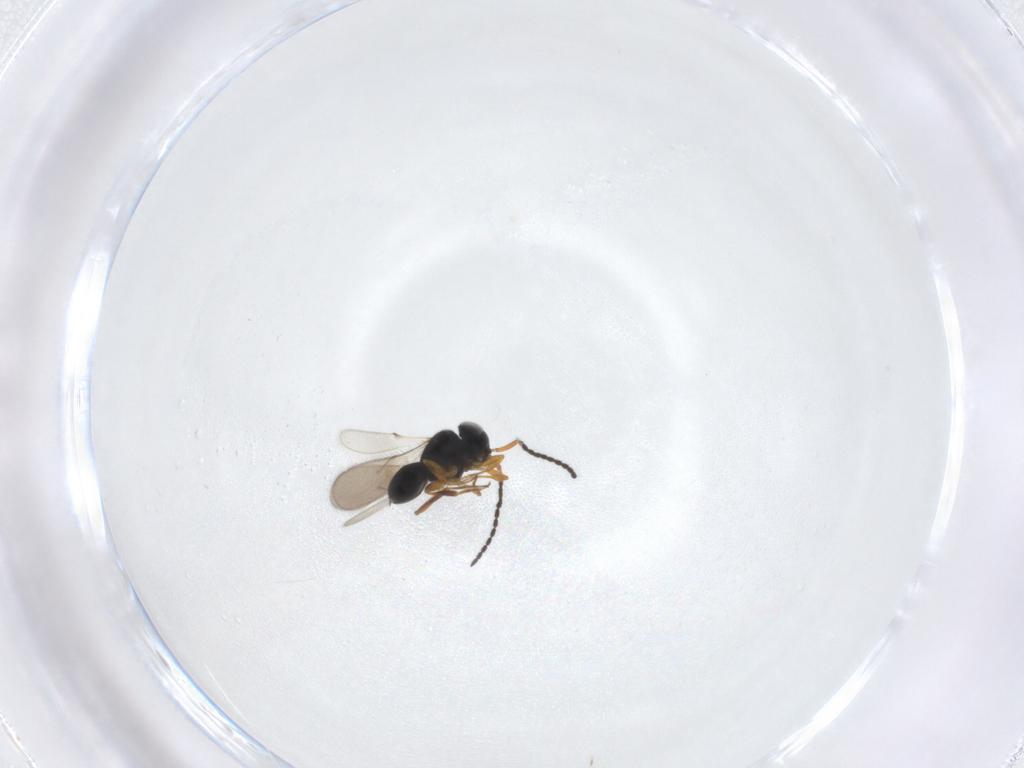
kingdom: Animalia
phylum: Arthropoda
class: Insecta
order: Hymenoptera
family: Scelionidae
